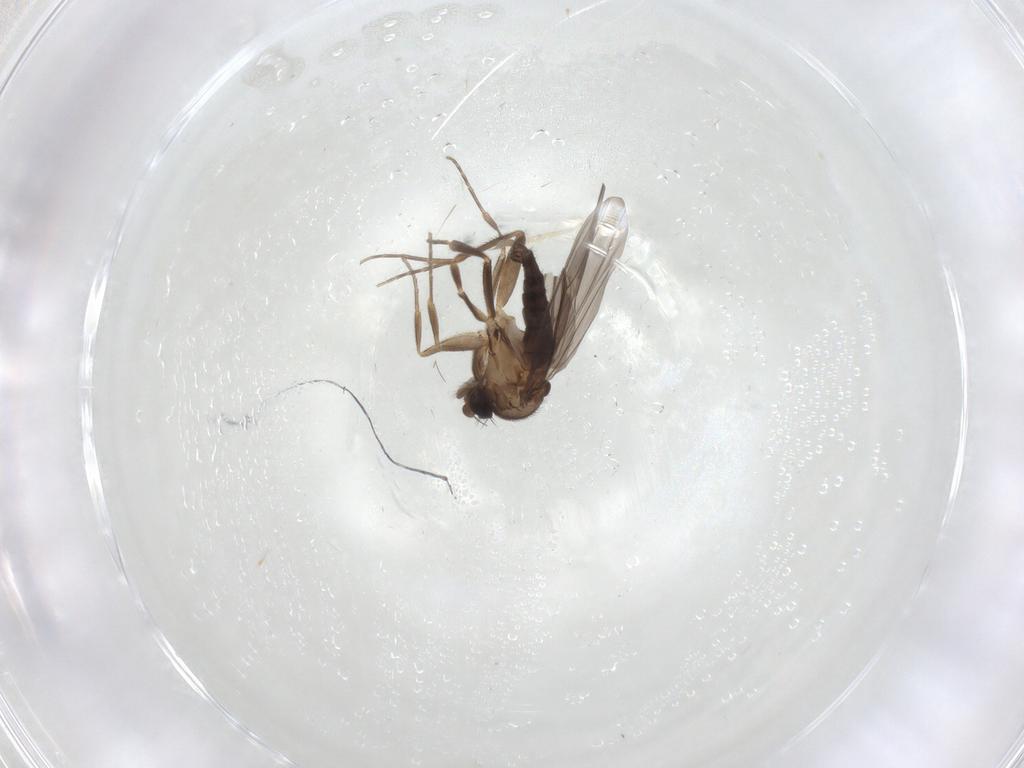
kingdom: Animalia
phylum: Arthropoda
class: Insecta
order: Diptera
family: Chironomidae
